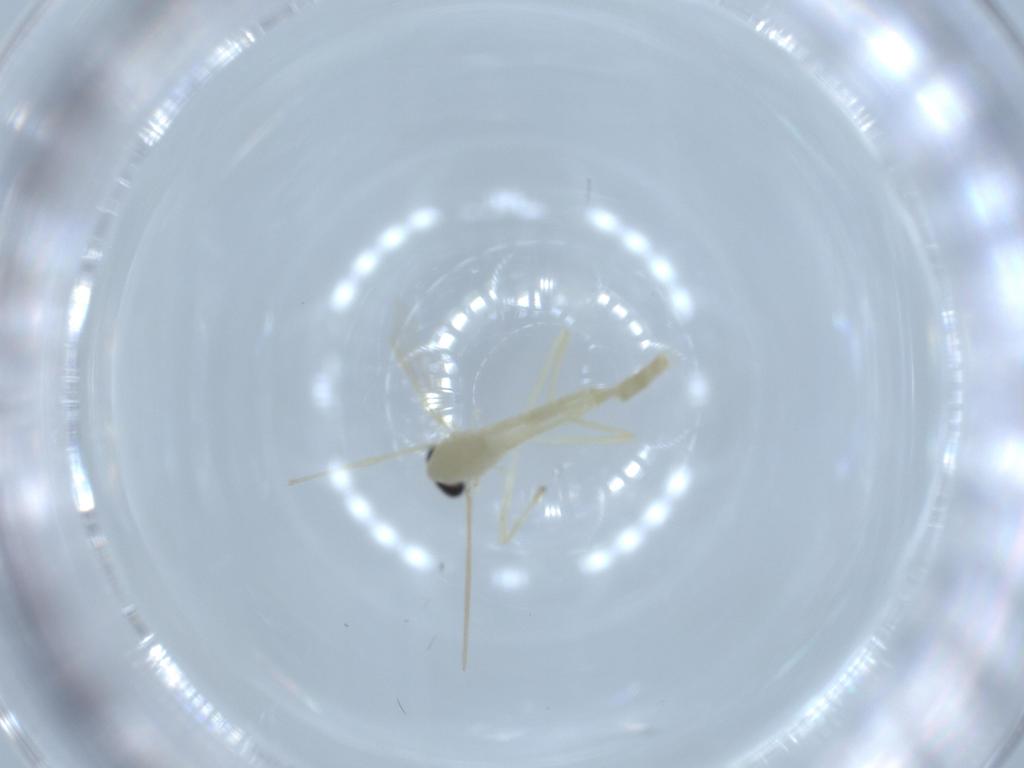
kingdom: Animalia
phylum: Arthropoda
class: Insecta
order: Diptera
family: Chironomidae
